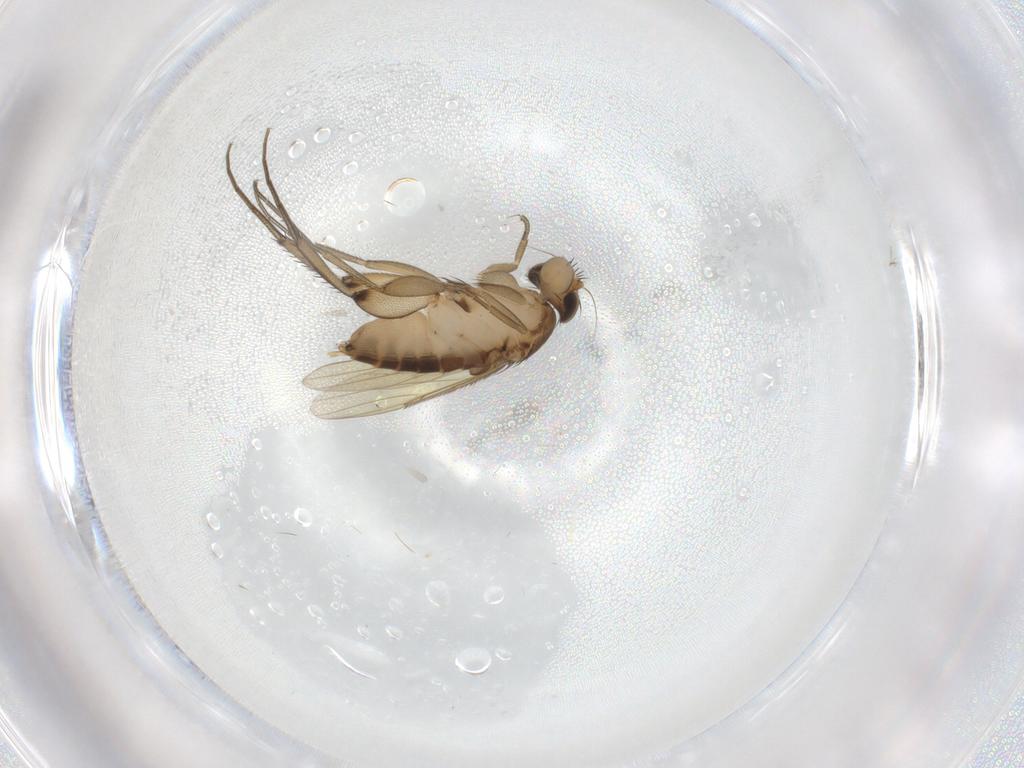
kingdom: Animalia
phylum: Arthropoda
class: Insecta
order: Diptera
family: Phoridae
